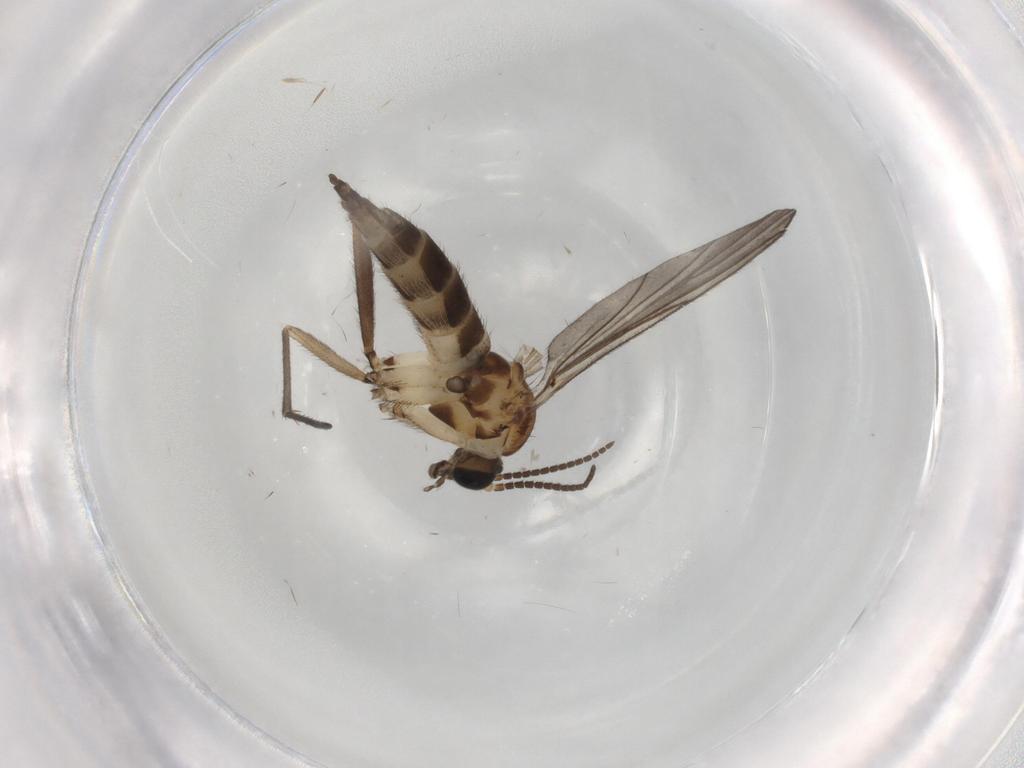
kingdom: Animalia
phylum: Arthropoda
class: Insecta
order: Diptera
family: Sciaridae
